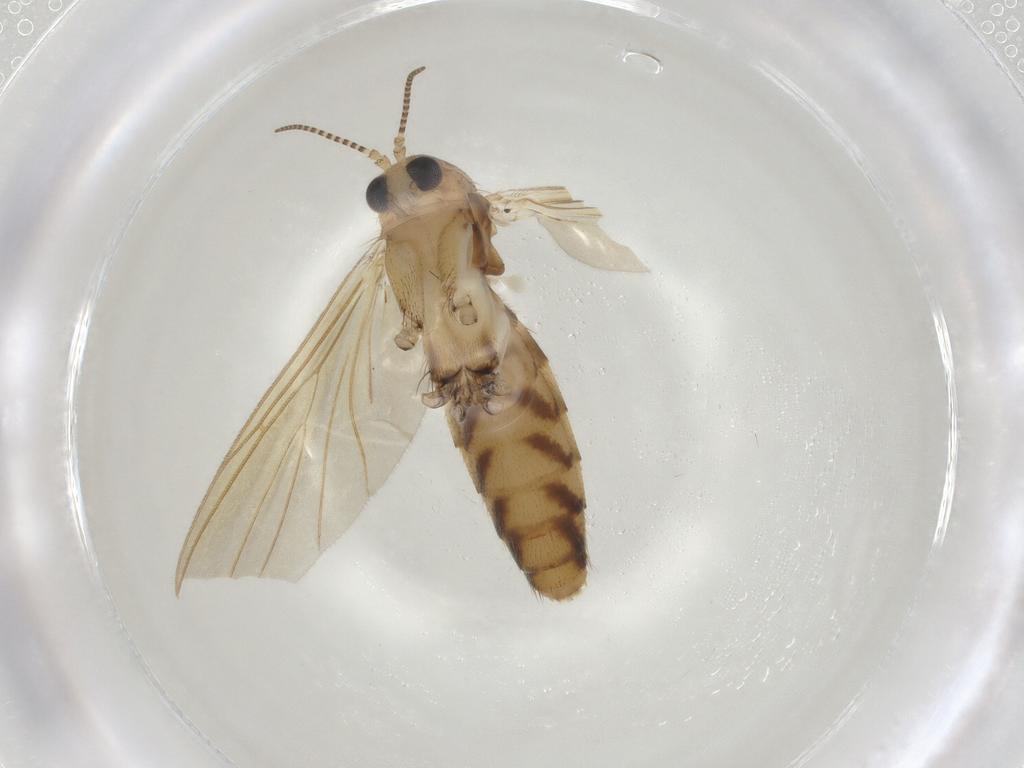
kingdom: Animalia
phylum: Arthropoda
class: Insecta
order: Diptera
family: Mycetophilidae
